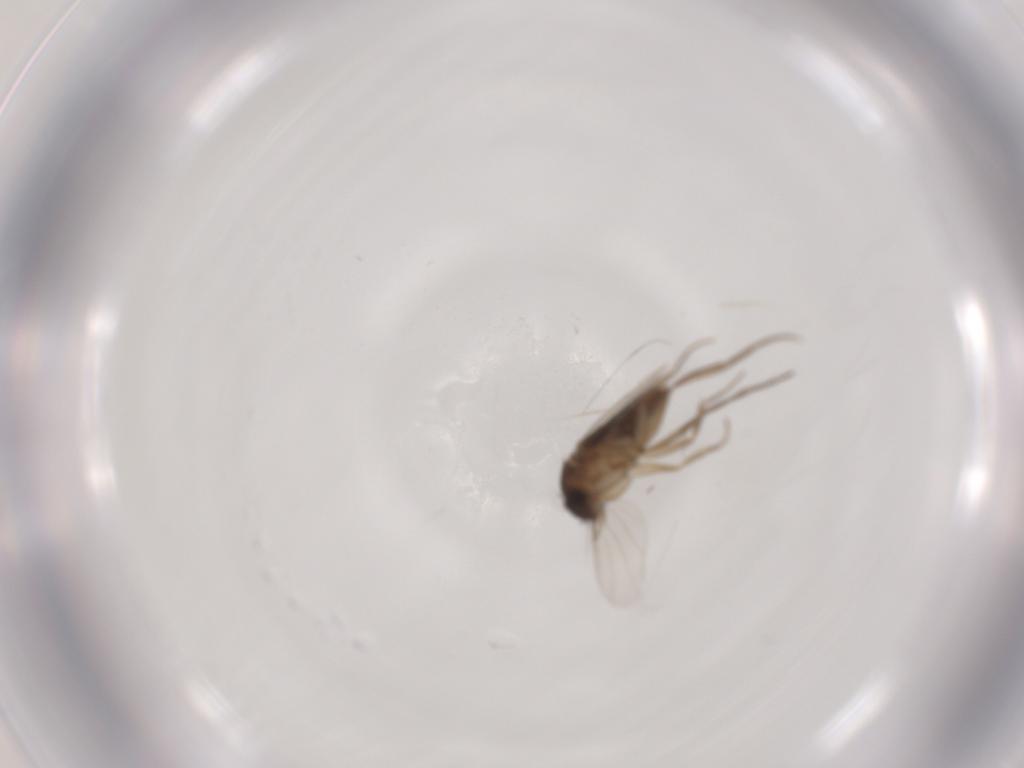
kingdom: Animalia
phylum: Arthropoda
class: Insecta
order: Diptera
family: Phoridae
